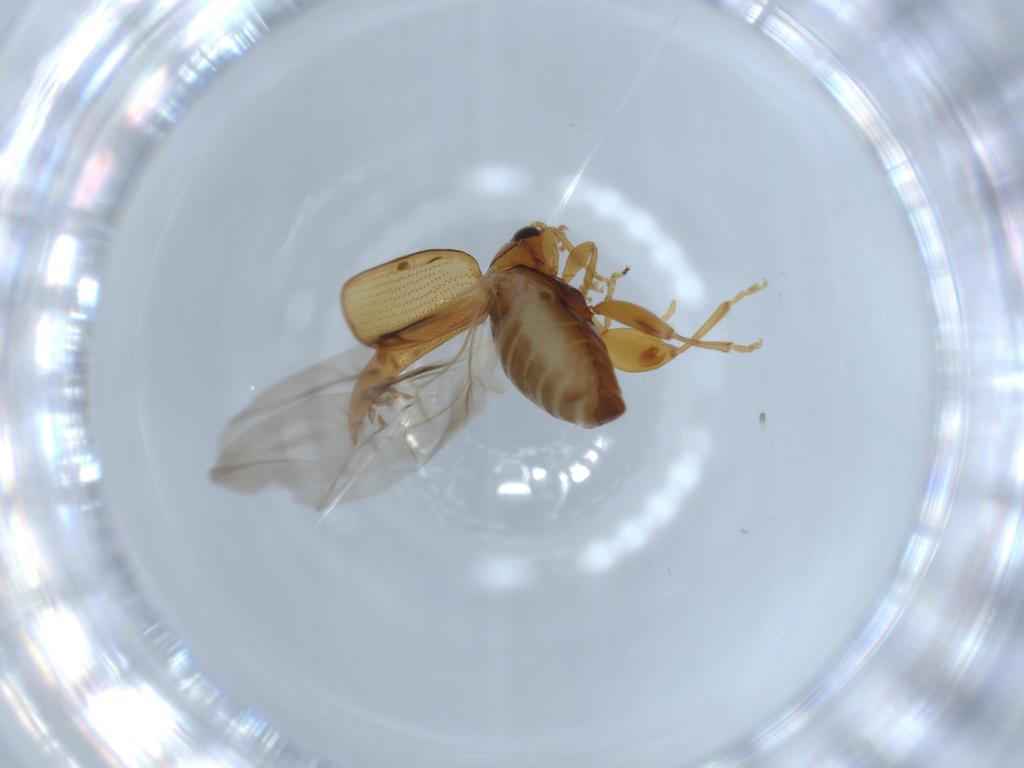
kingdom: Animalia
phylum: Arthropoda
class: Insecta
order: Coleoptera
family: Chrysomelidae
